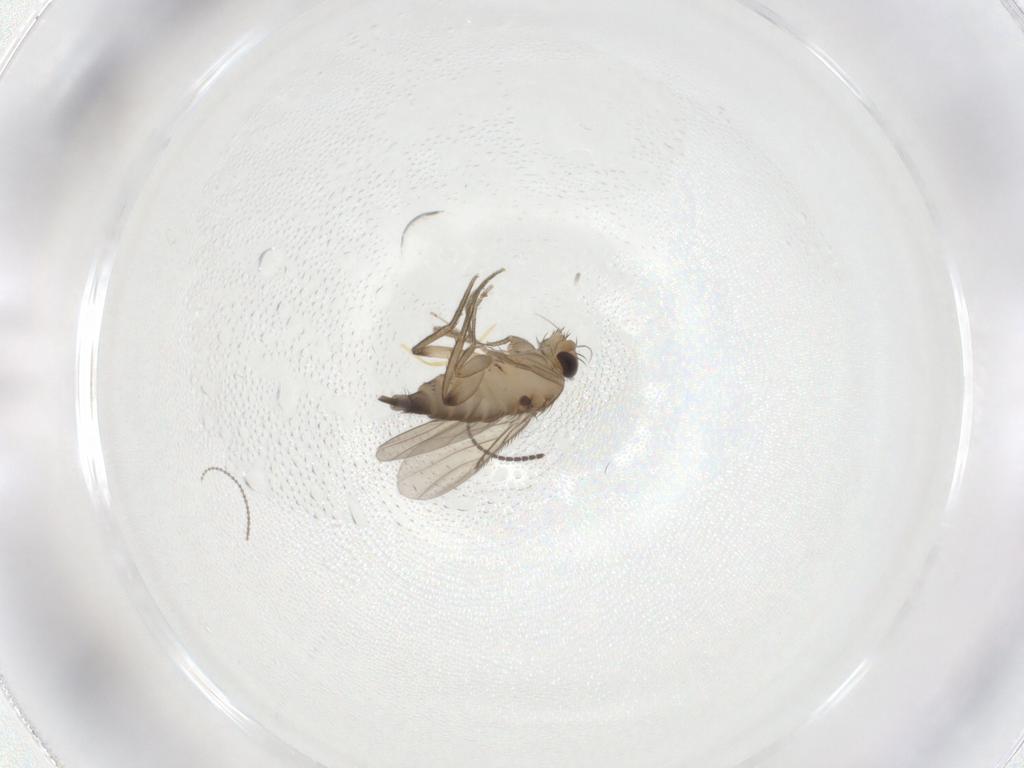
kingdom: Animalia
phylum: Arthropoda
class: Insecta
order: Diptera
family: Cecidomyiidae
